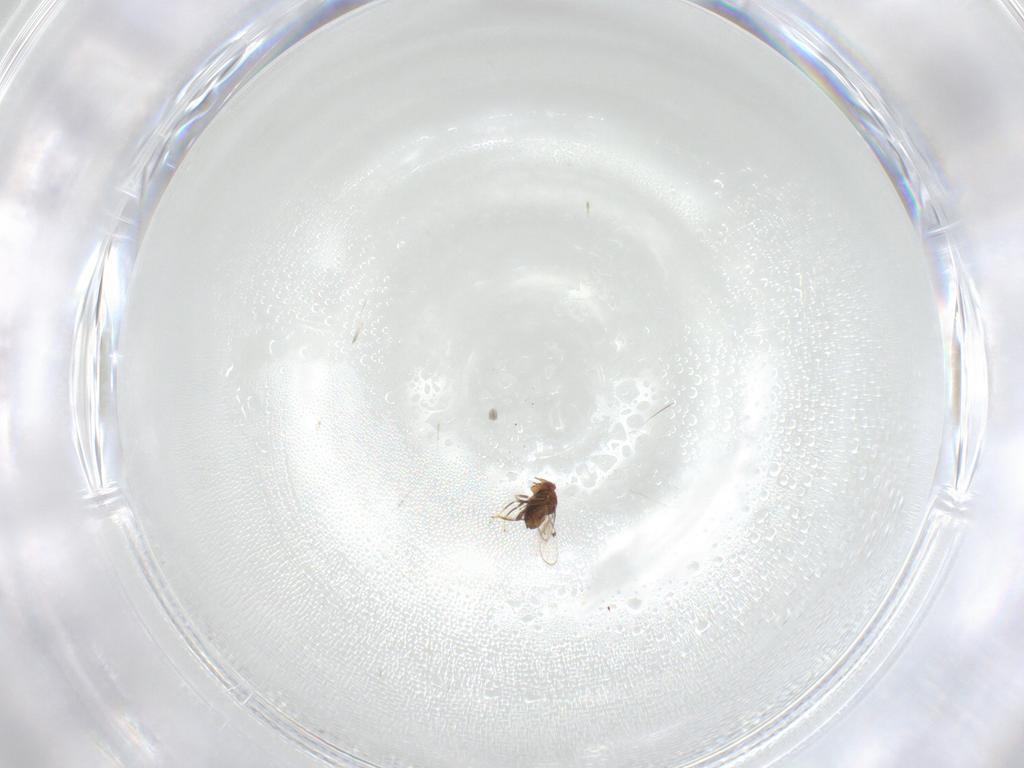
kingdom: Animalia
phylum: Arthropoda
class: Insecta
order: Hymenoptera
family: Trichogrammatidae
